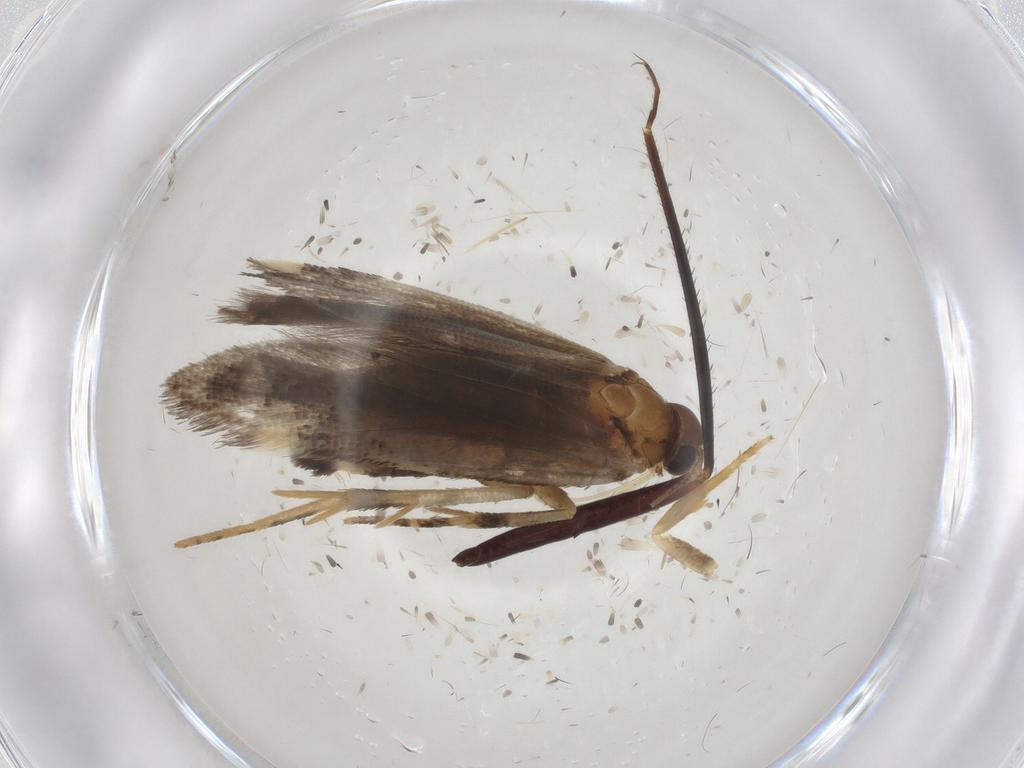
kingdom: Animalia
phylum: Arthropoda
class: Insecta
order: Lepidoptera
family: Gelechiidae
